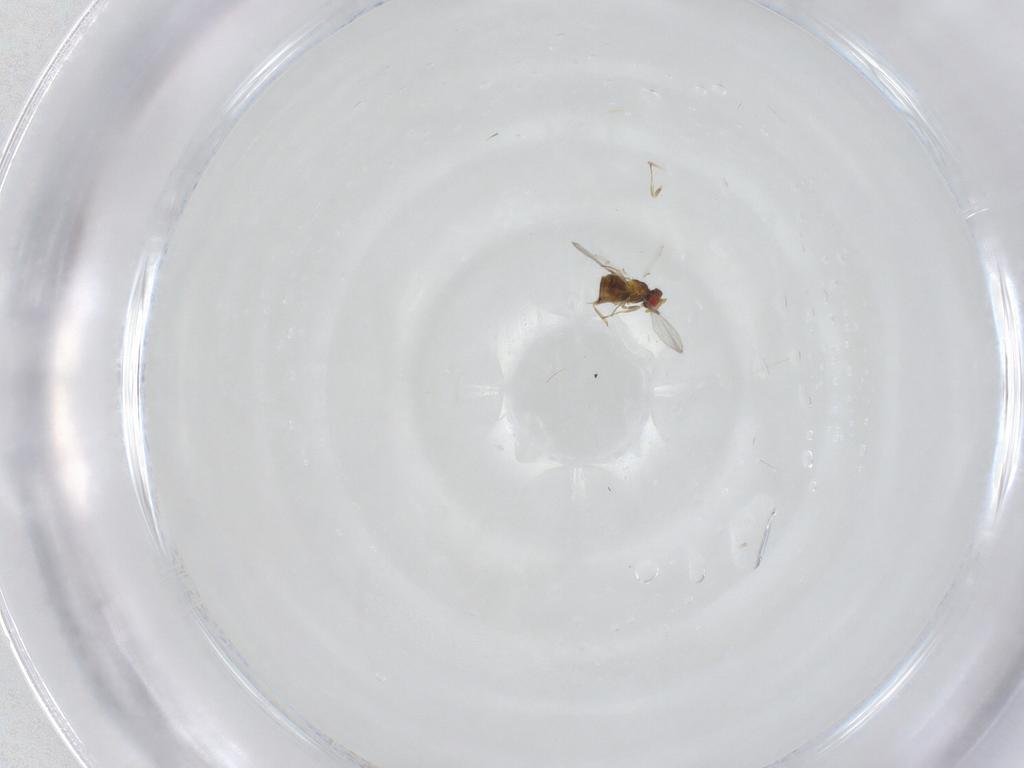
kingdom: Animalia
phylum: Arthropoda
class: Insecta
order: Hymenoptera
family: Trichogrammatidae
